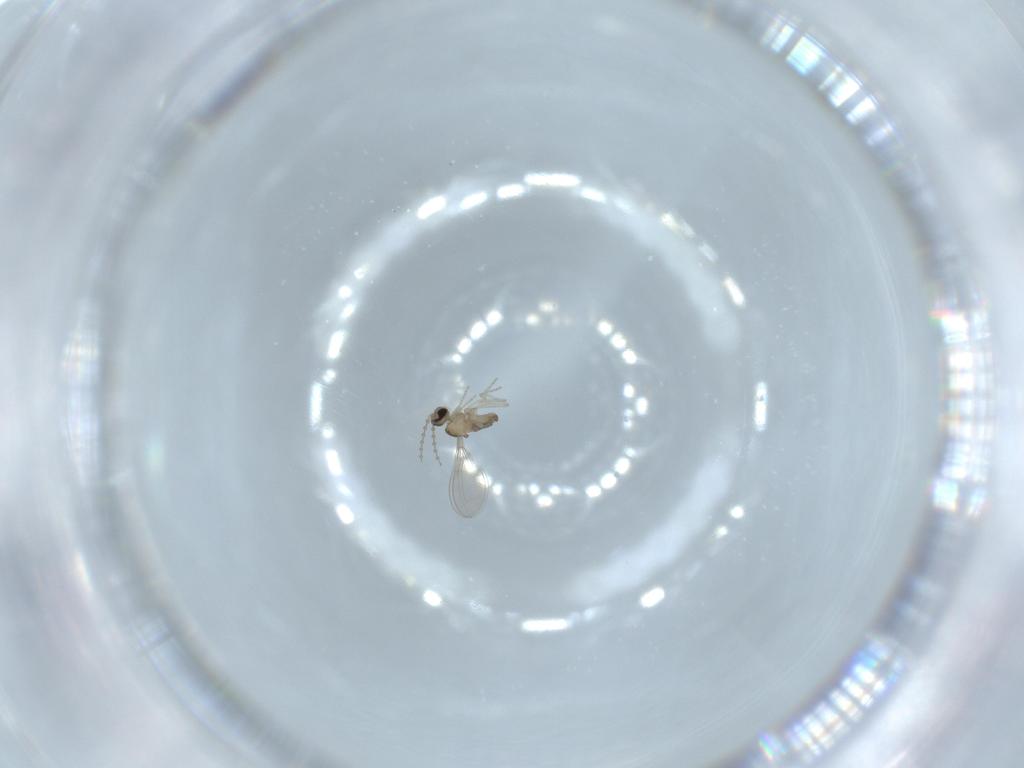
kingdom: Animalia
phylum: Arthropoda
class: Insecta
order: Diptera
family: Cecidomyiidae
